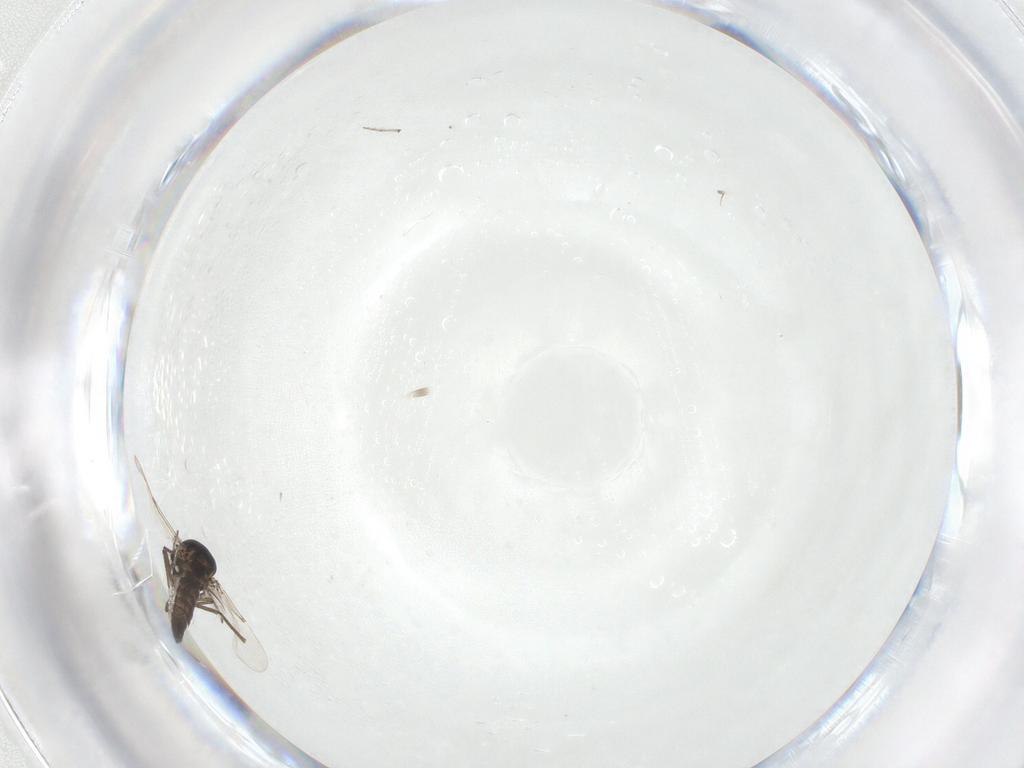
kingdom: Animalia
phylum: Arthropoda
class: Insecta
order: Diptera
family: Ceratopogonidae
